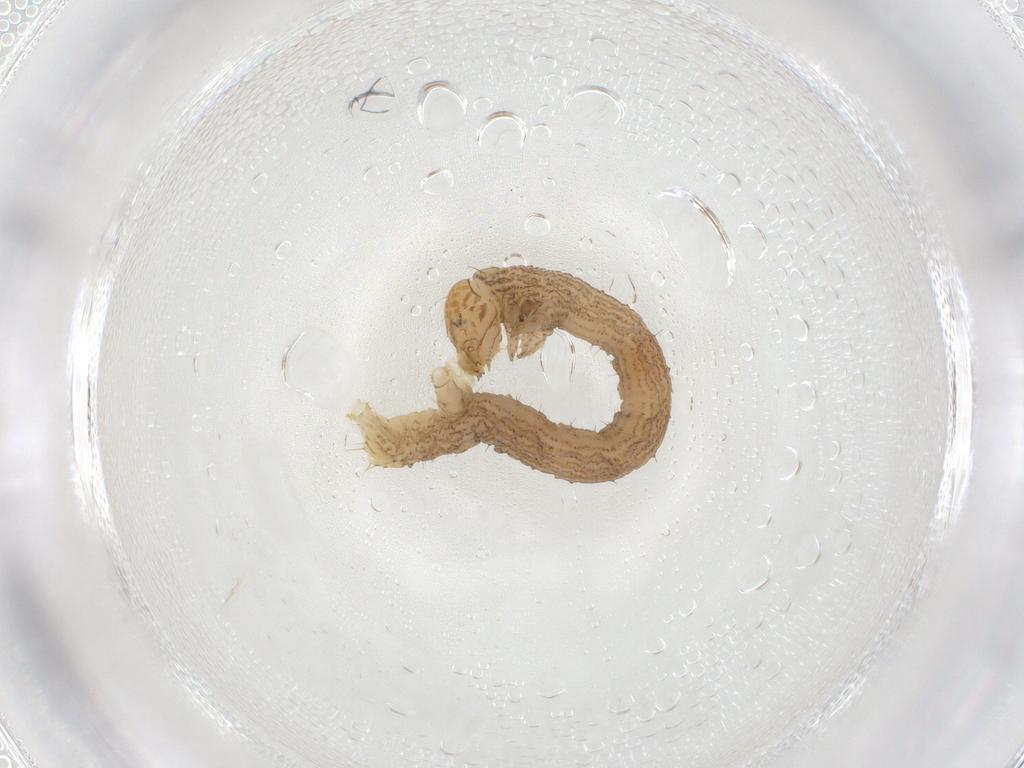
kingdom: Animalia
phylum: Arthropoda
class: Insecta
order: Lepidoptera
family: Geometridae
